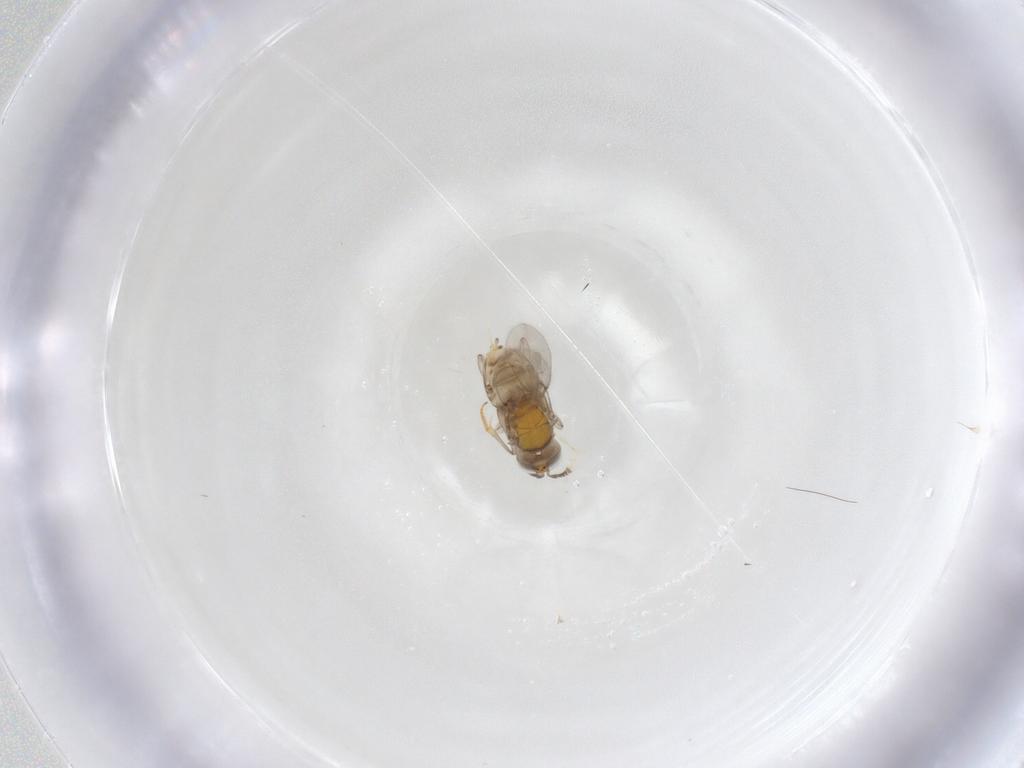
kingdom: Animalia
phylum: Arthropoda
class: Insecta
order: Hymenoptera
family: Encyrtidae
